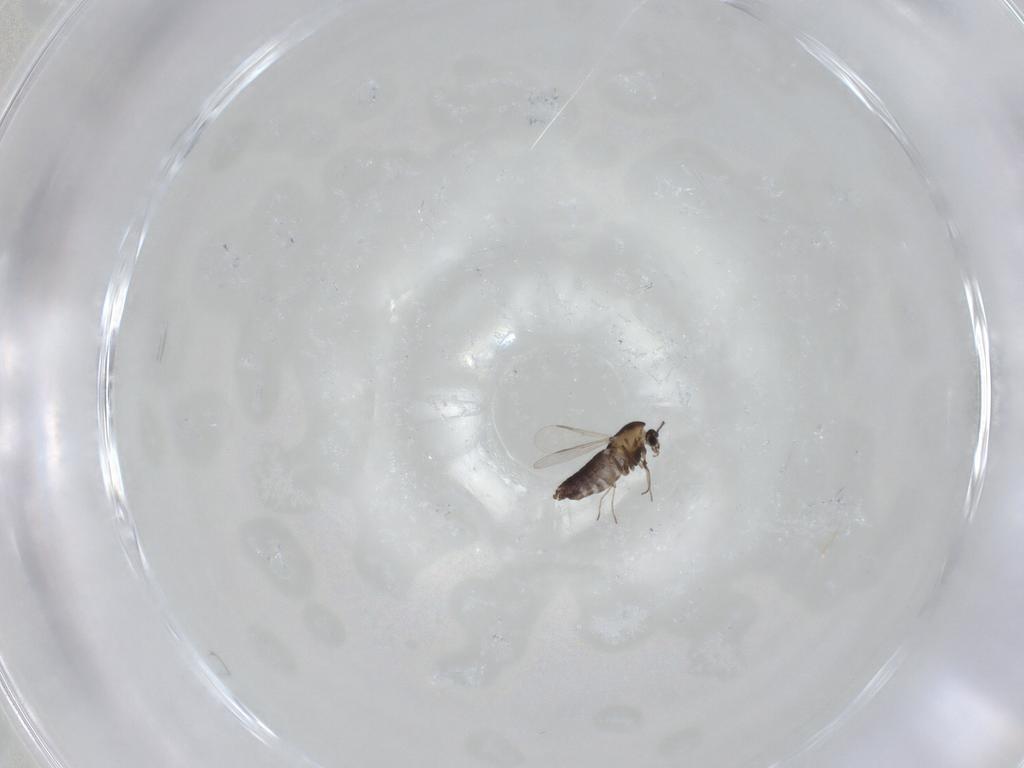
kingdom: Animalia
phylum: Arthropoda
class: Insecta
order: Diptera
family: Chironomidae
